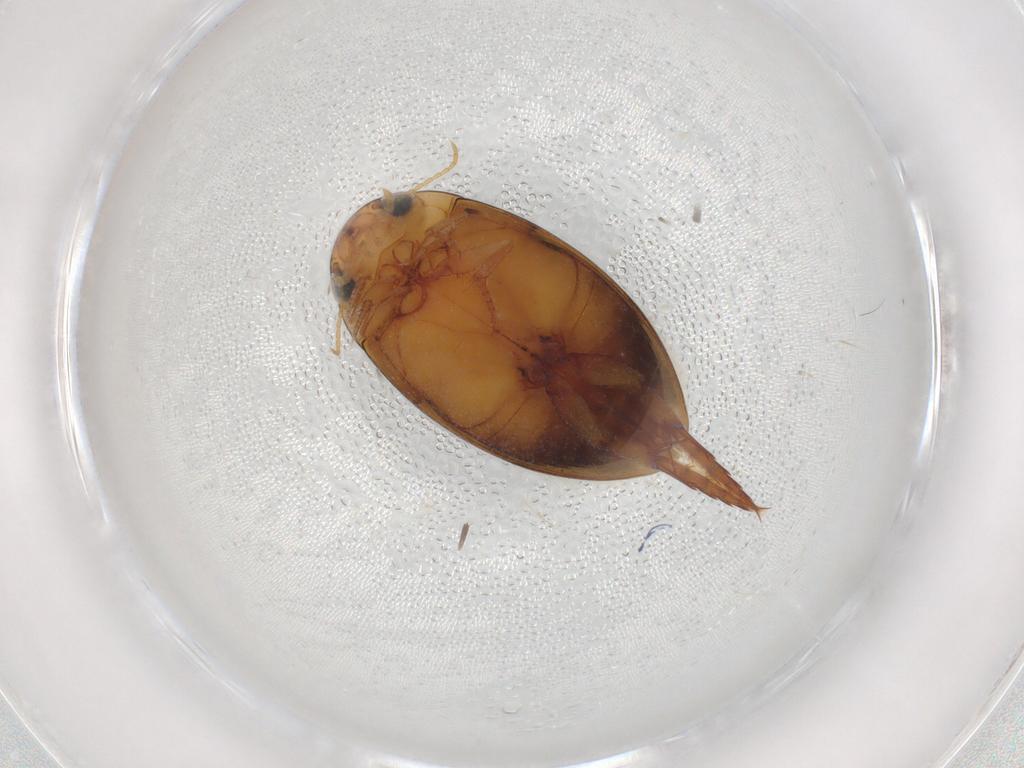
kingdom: Animalia
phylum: Arthropoda
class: Insecta
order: Coleoptera
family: Dytiscidae
